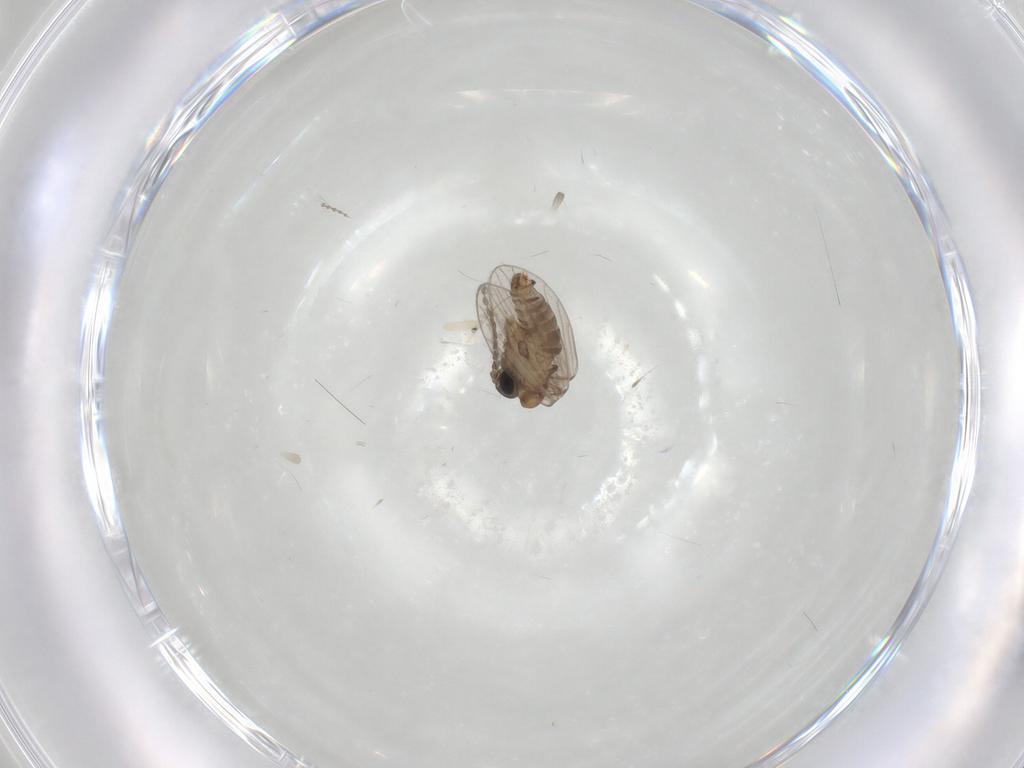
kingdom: Animalia
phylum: Arthropoda
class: Insecta
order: Diptera
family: Psychodidae
